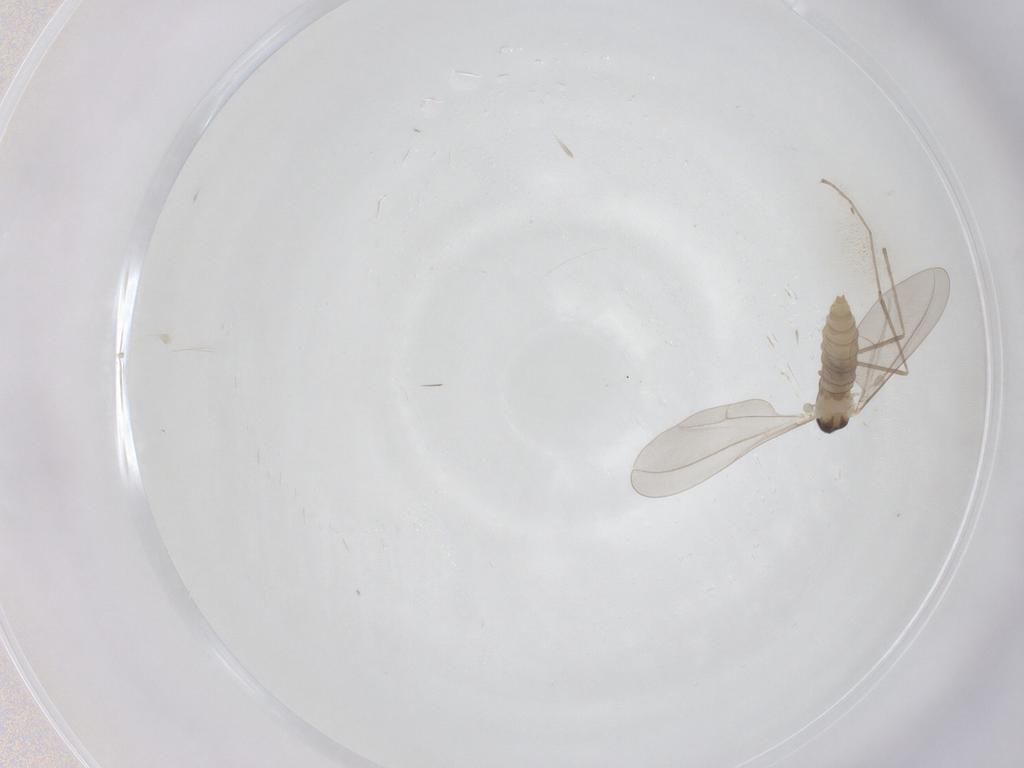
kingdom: Animalia
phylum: Arthropoda
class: Insecta
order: Diptera
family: Cecidomyiidae
